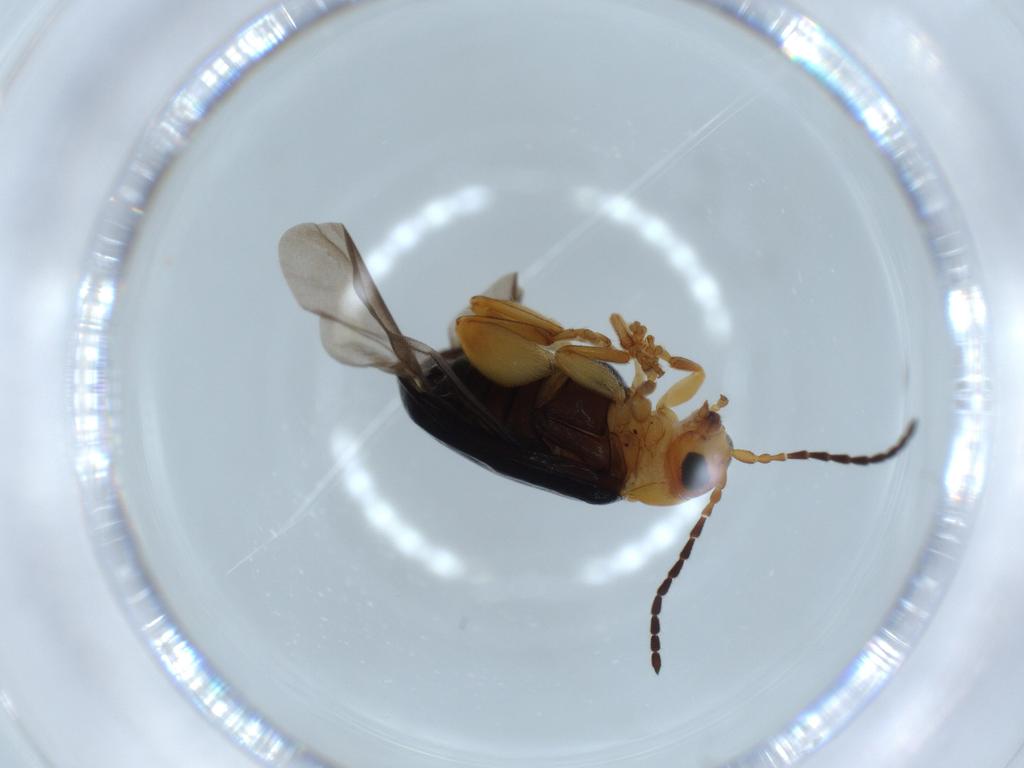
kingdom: Animalia
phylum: Arthropoda
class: Insecta
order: Coleoptera
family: Chrysomelidae
